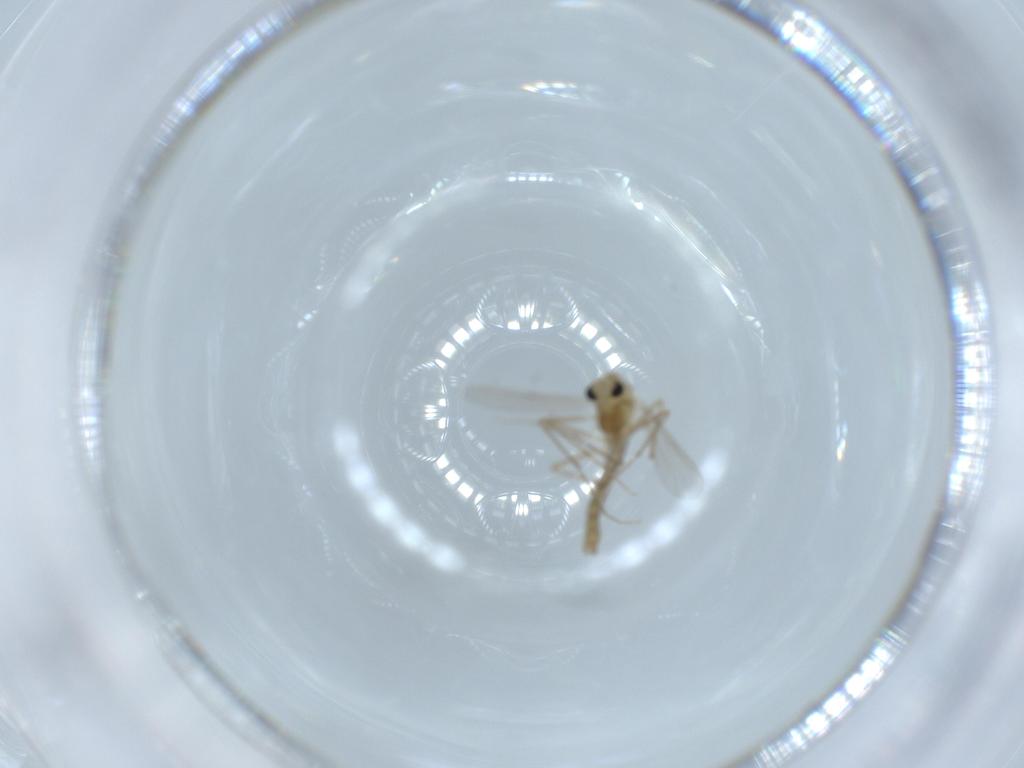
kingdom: Animalia
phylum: Arthropoda
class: Insecta
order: Diptera
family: Chironomidae
